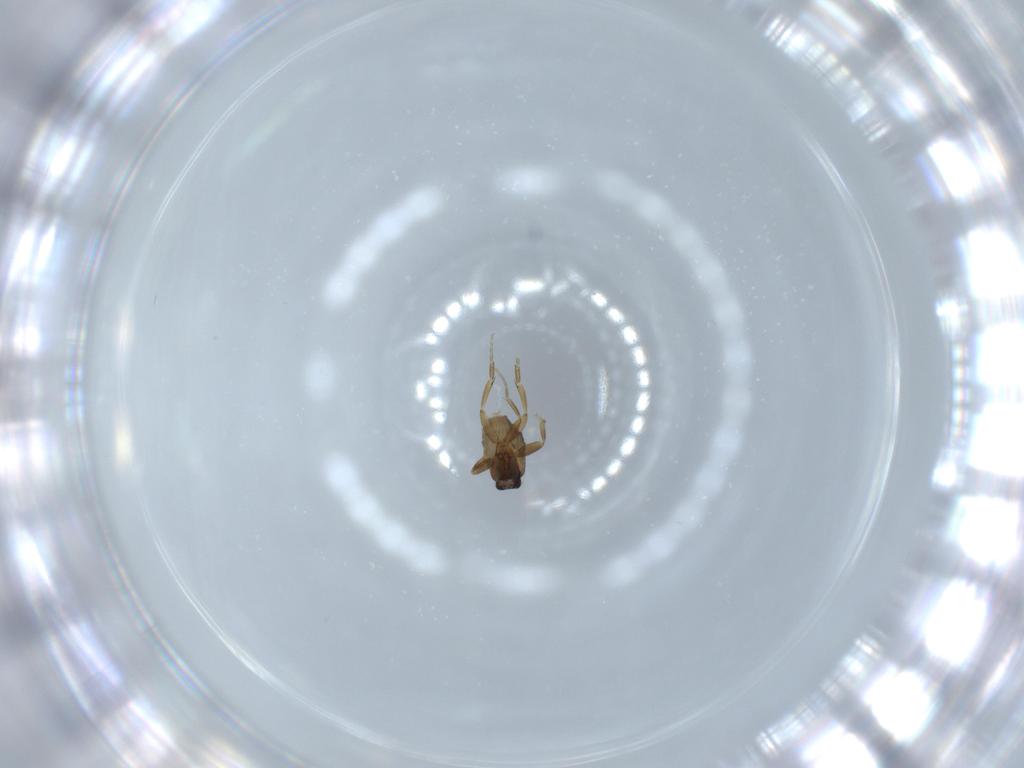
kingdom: Animalia
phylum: Arthropoda
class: Insecta
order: Diptera
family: Phoridae
